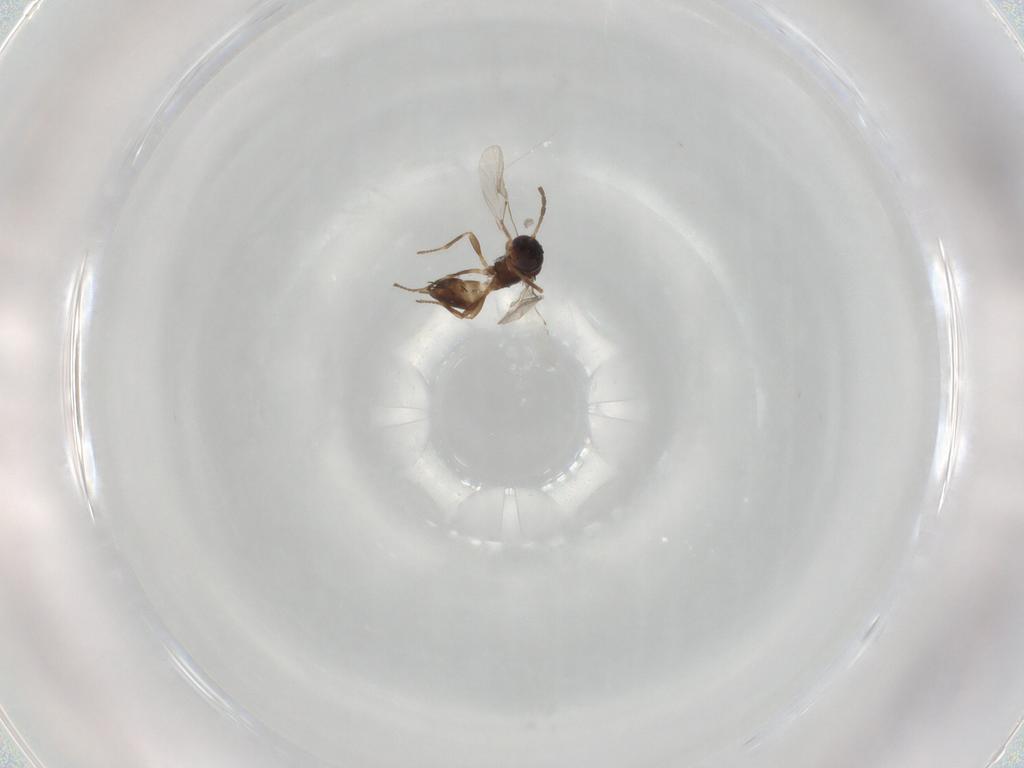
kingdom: Animalia
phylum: Arthropoda
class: Insecta
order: Hymenoptera
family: Braconidae
